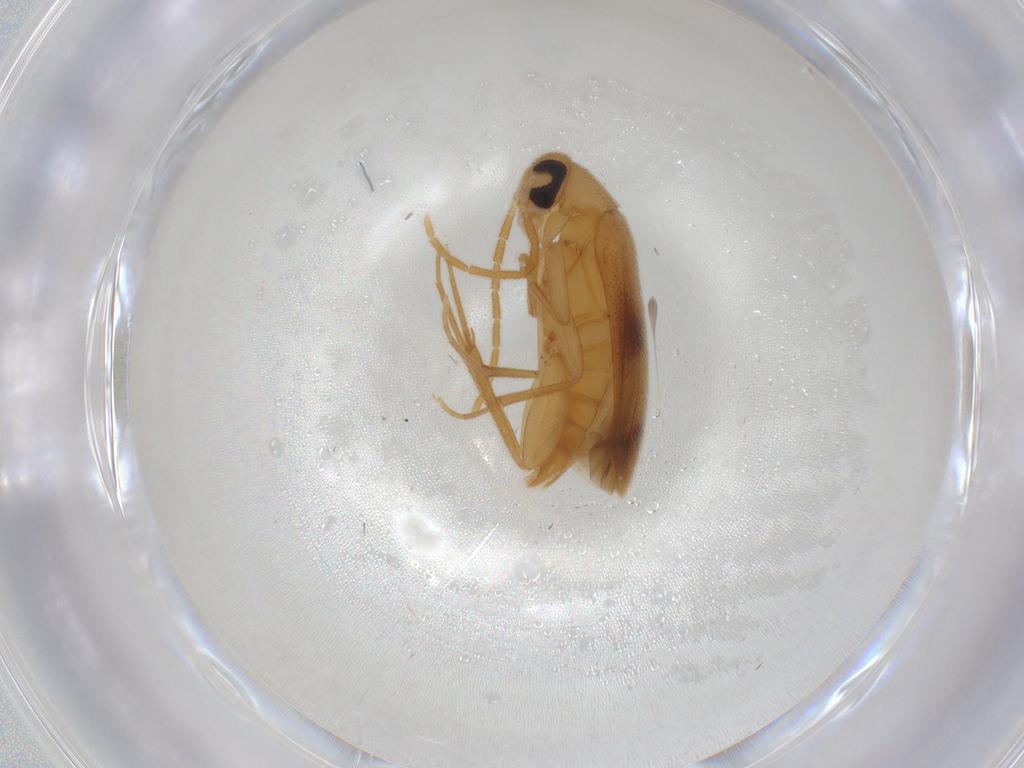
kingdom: Animalia
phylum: Arthropoda
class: Insecta
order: Coleoptera
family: Scraptiidae
